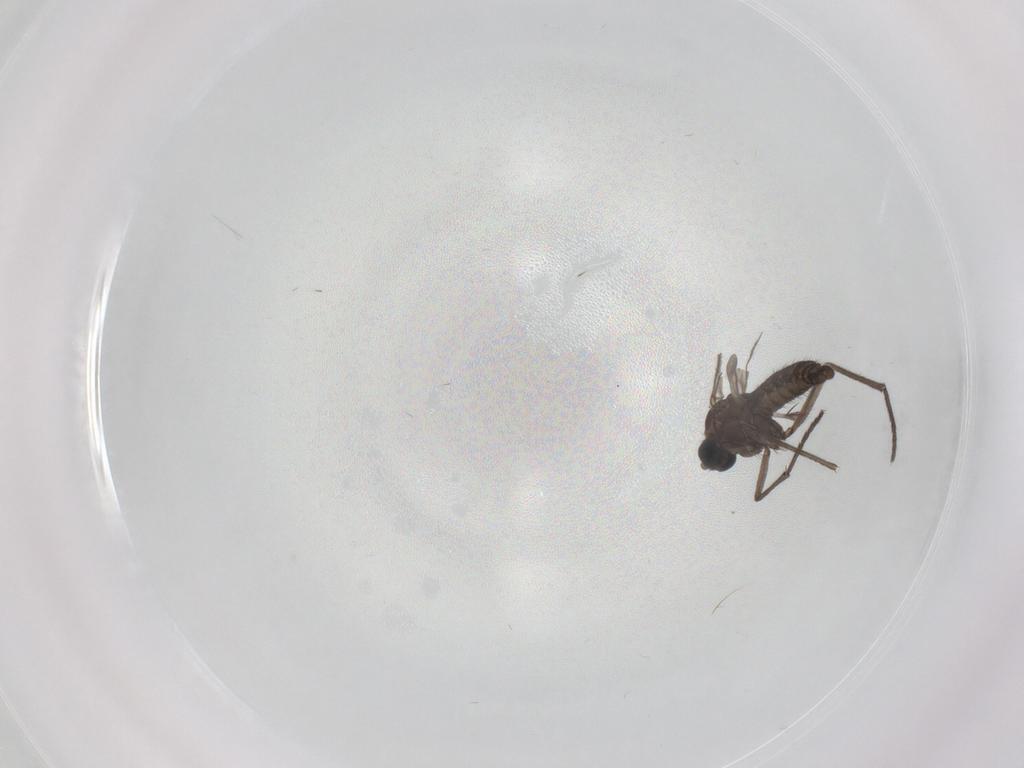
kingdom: Animalia
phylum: Arthropoda
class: Insecta
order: Diptera
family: Sciaridae
